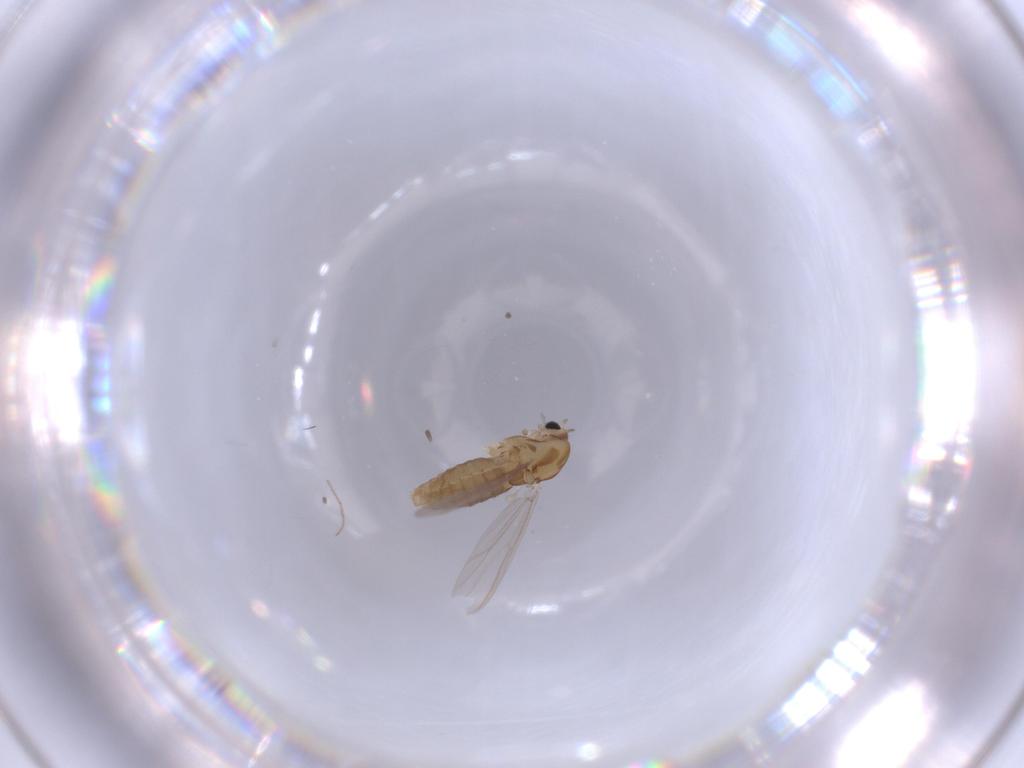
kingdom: Animalia
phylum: Arthropoda
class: Insecta
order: Diptera
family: Chironomidae
